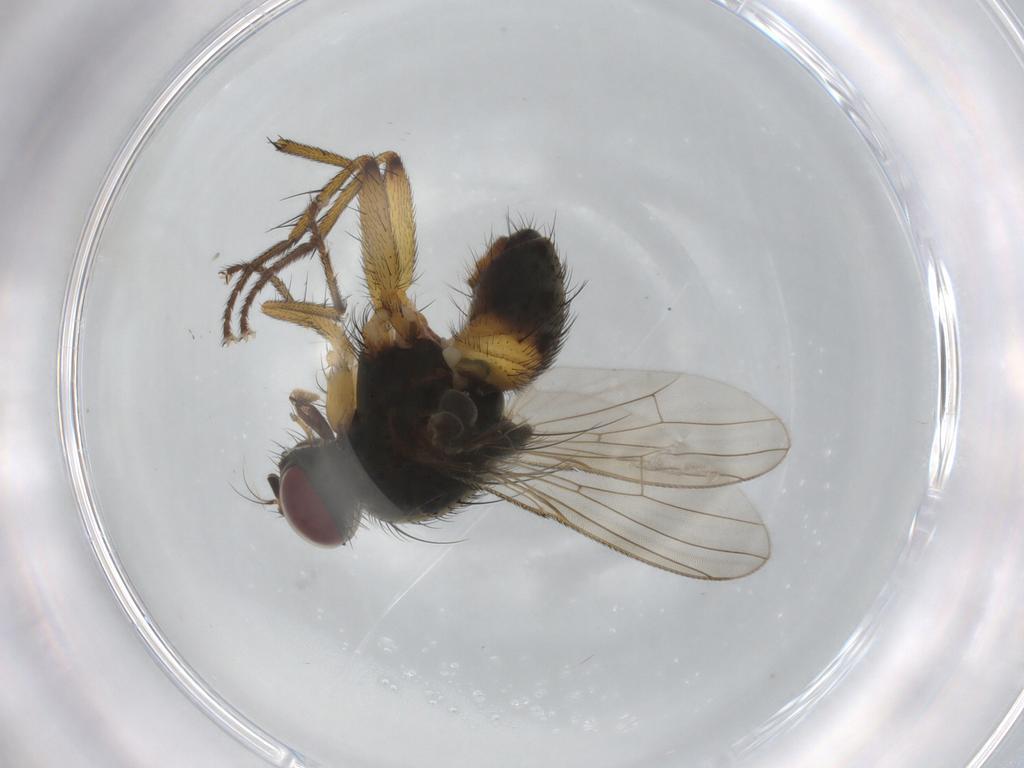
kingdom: Animalia
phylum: Arthropoda
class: Insecta
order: Diptera
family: Muscidae
